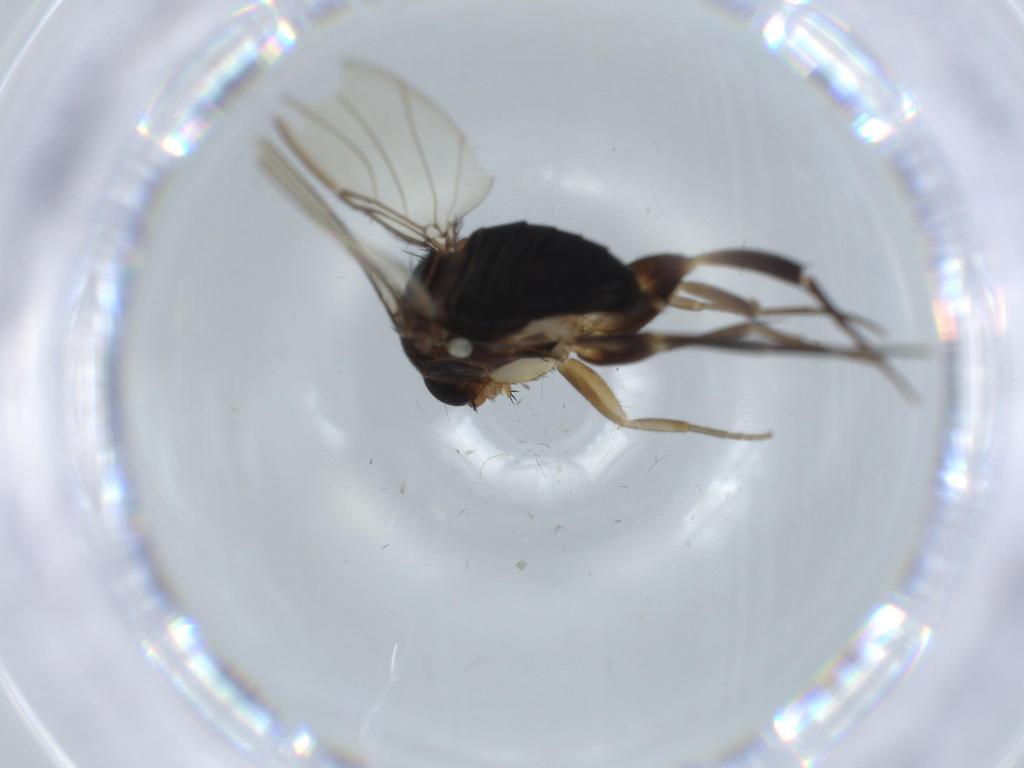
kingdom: Animalia
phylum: Arthropoda
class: Insecta
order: Diptera
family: Phoridae
